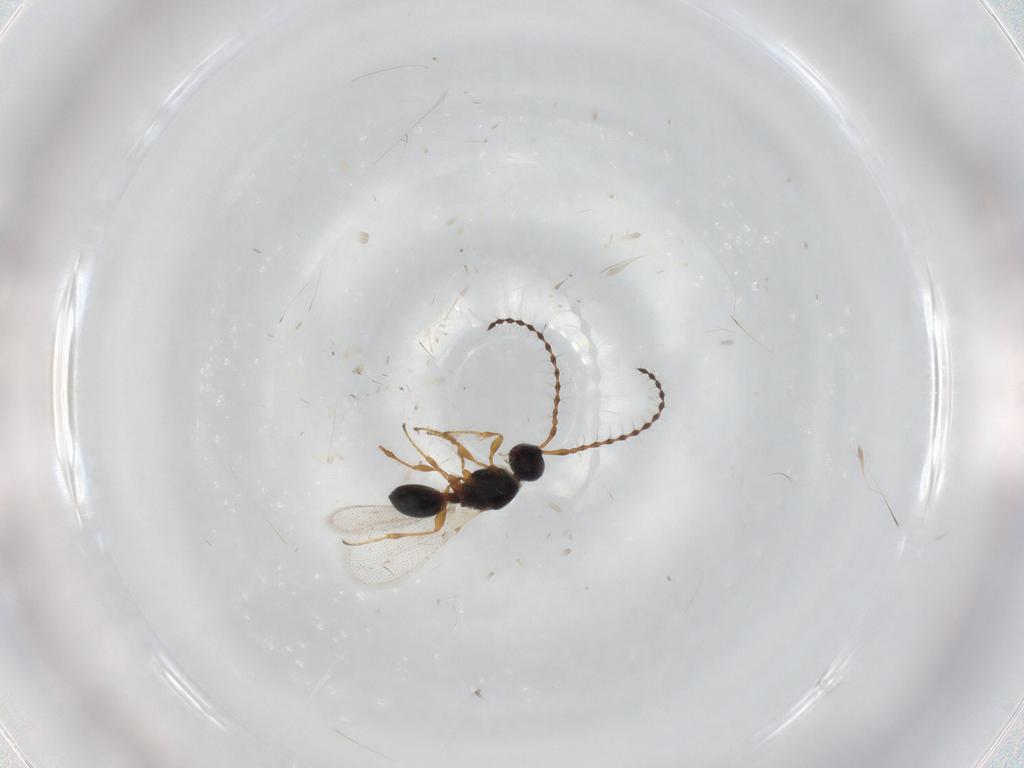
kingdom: Animalia
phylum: Arthropoda
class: Insecta
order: Hymenoptera
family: Diapriidae
